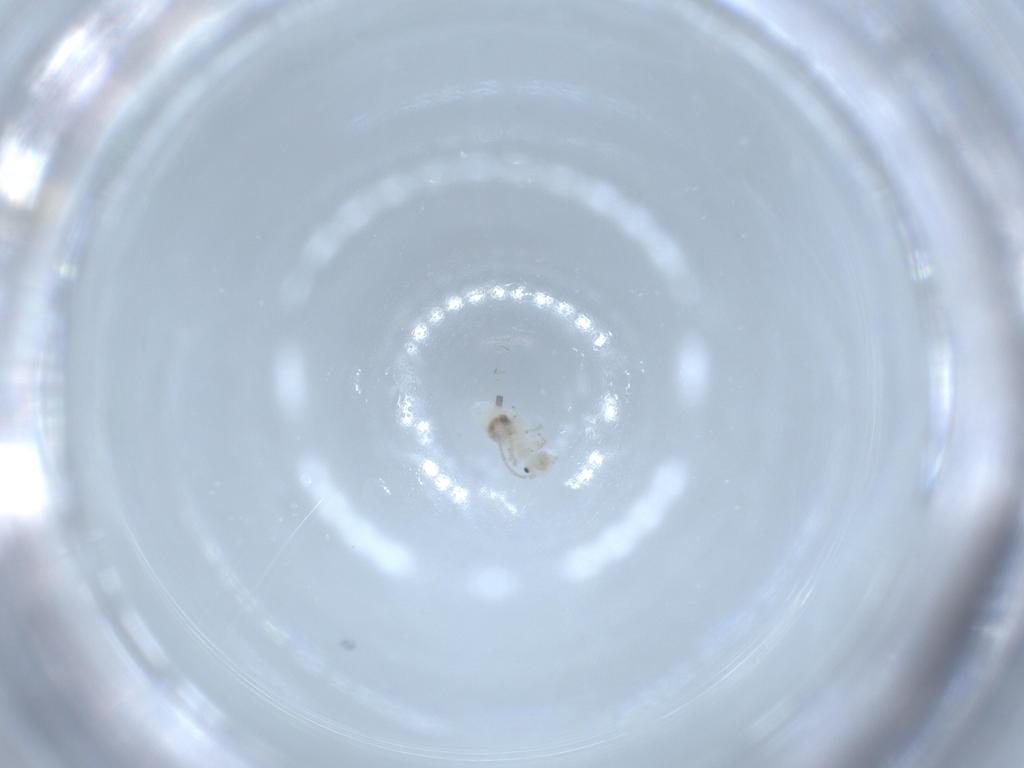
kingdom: Animalia
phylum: Arthropoda
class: Insecta
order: Psocodea
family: Caeciliusidae
